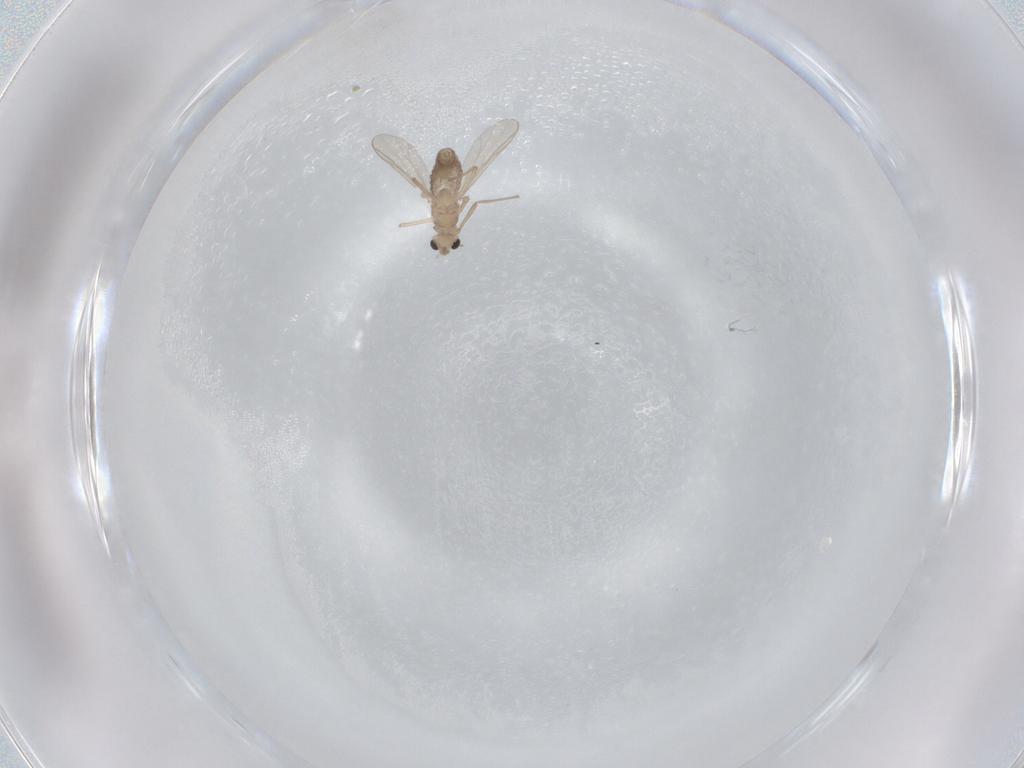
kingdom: Animalia
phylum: Arthropoda
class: Insecta
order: Diptera
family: Chironomidae
